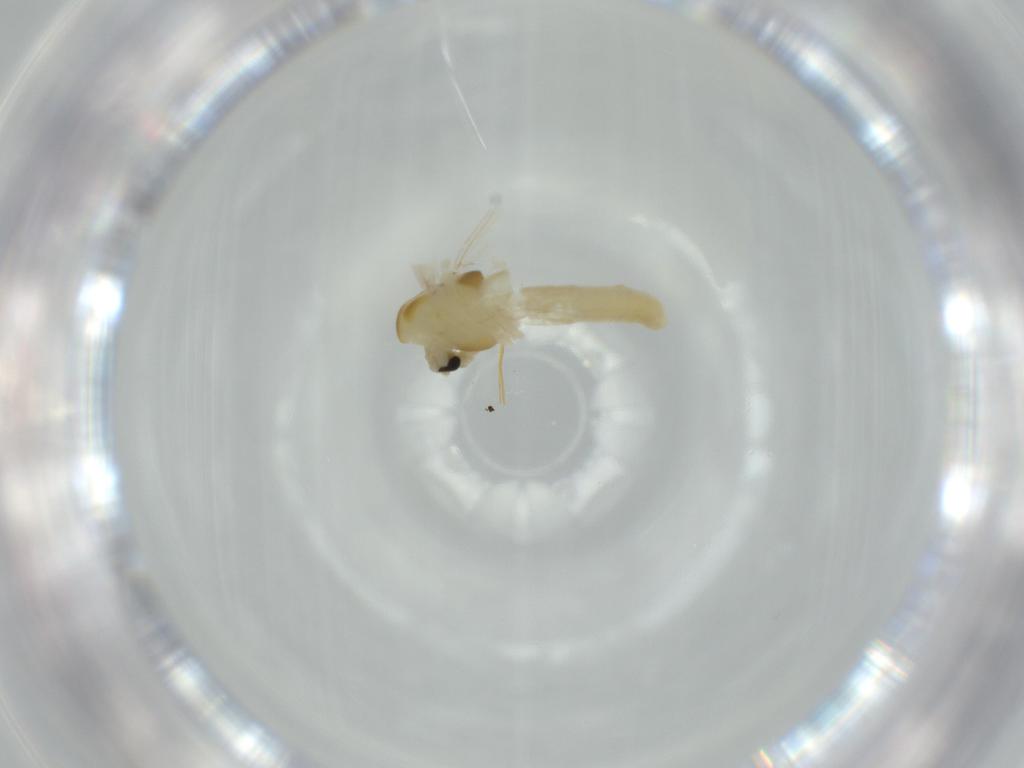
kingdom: Animalia
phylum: Arthropoda
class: Insecta
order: Diptera
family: Chironomidae
